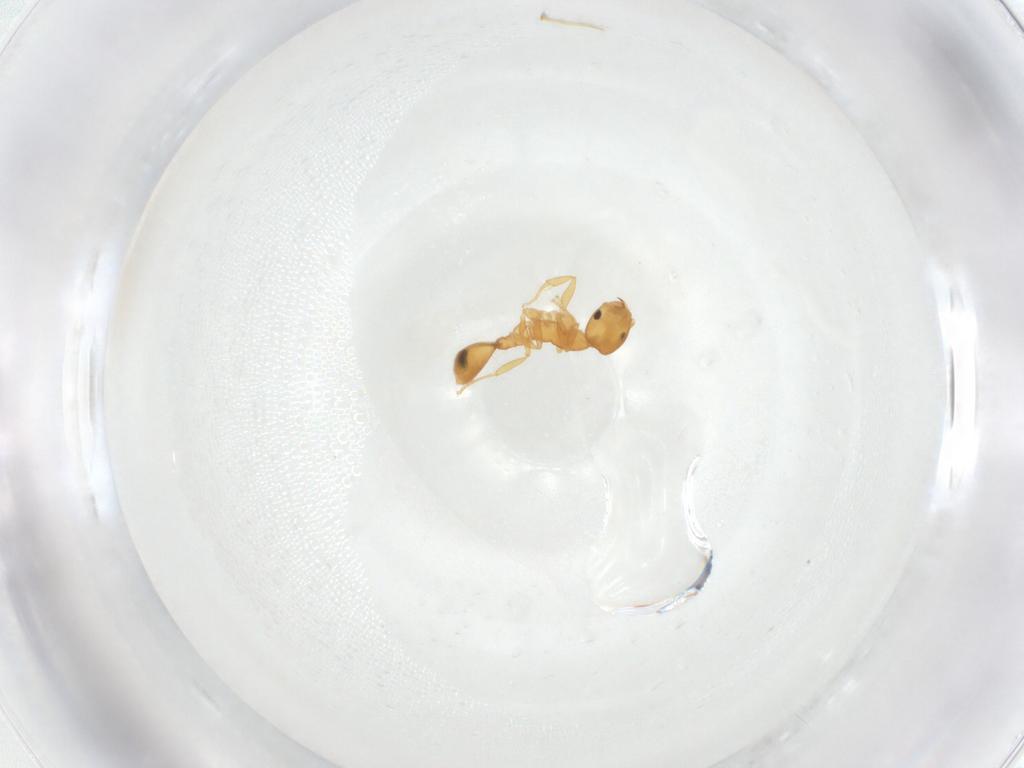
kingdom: Animalia
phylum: Arthropoda
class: Insecta
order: Hymenoptera
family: Formicidae
